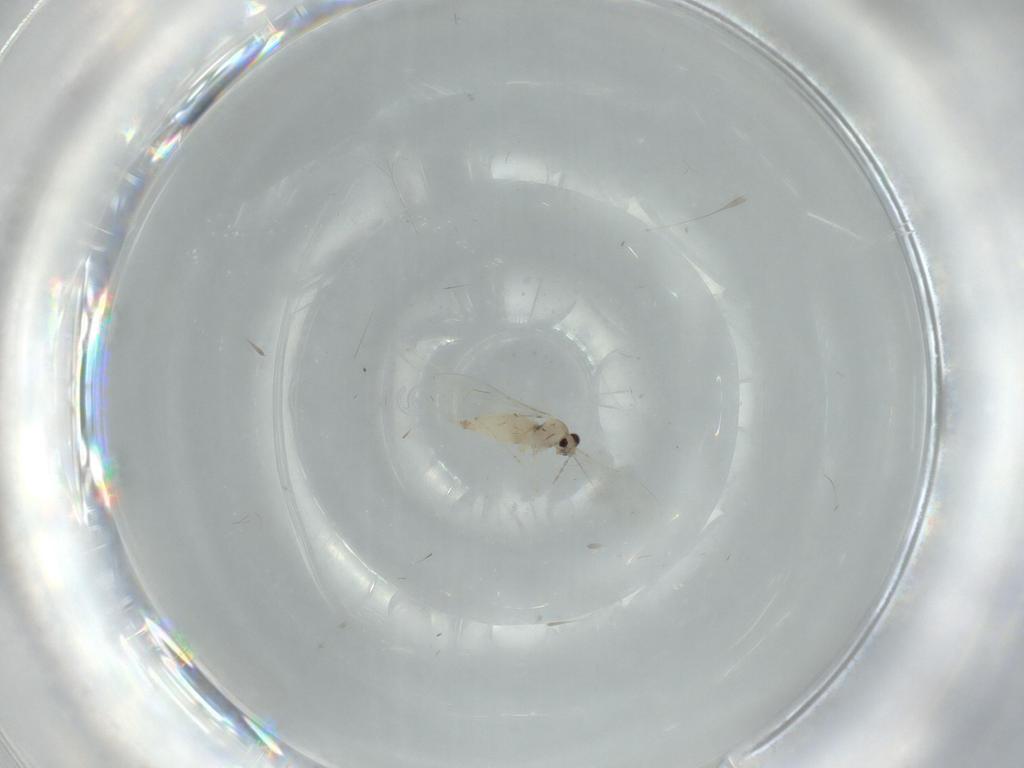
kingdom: Animalia
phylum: Arthropoda
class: Insecta
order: Diptera
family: Cecidomyiidae
